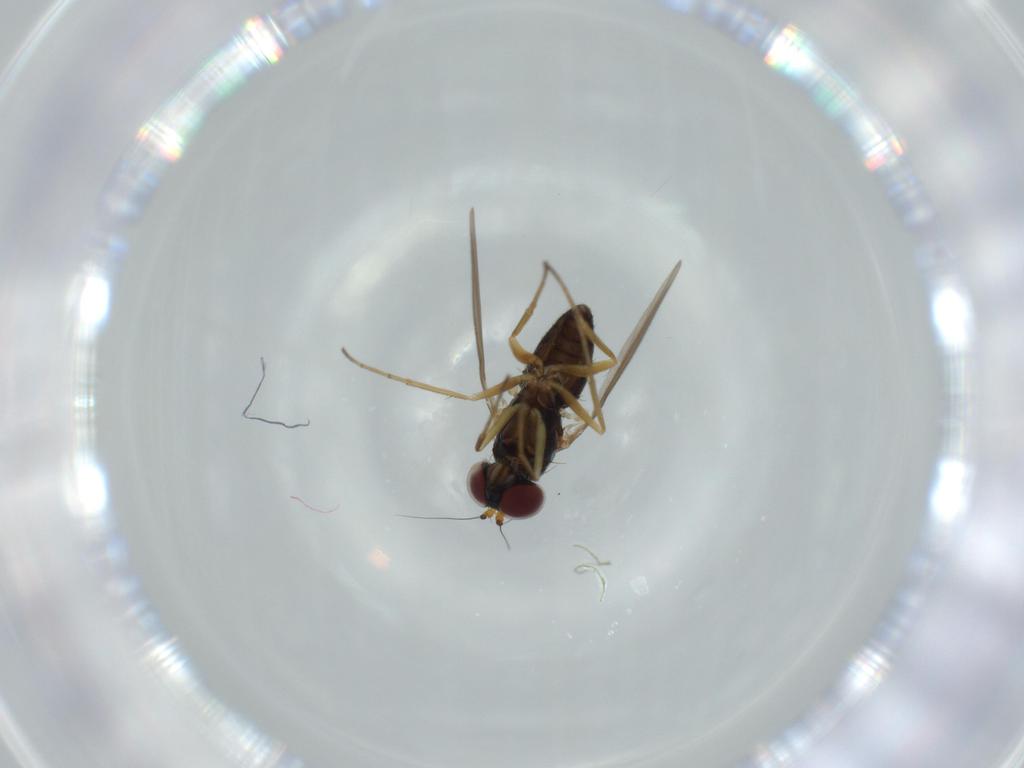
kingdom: Animalia
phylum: Arthropoda
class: Insecta
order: Diptera
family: Dolichopodidae
